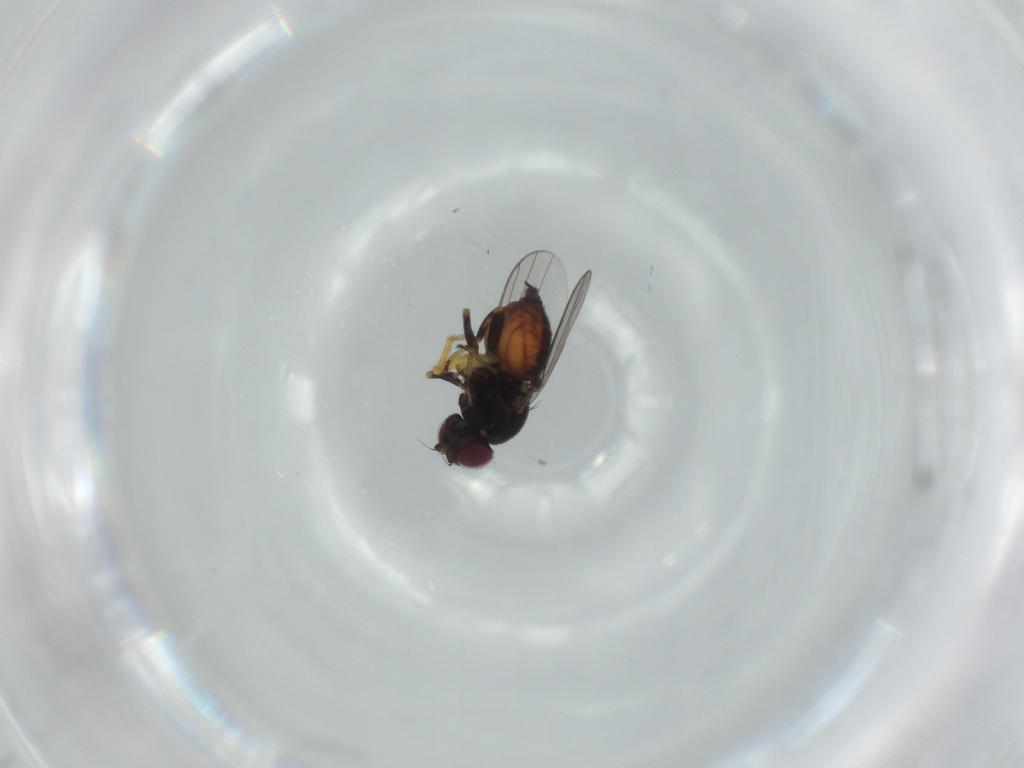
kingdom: Animalia
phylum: Arthropoda
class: Insecta
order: Diptera
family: Chloropidae
